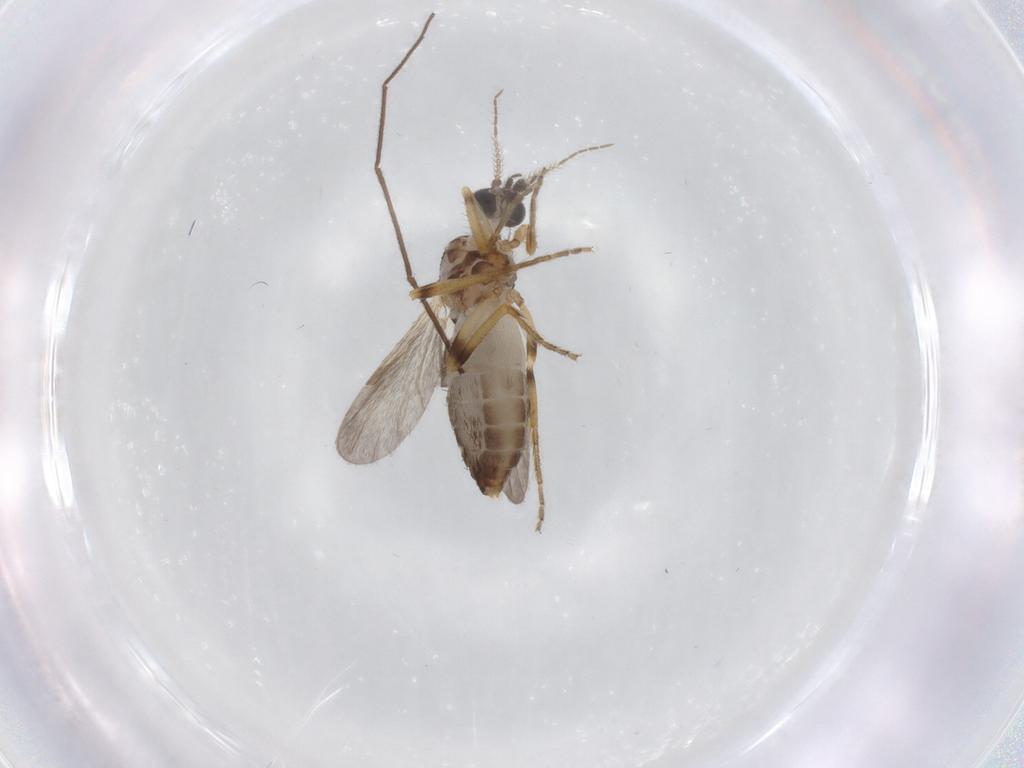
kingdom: Animalia
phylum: Arthropoda
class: Insecta
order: Diptera
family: Ceratopogonidae
